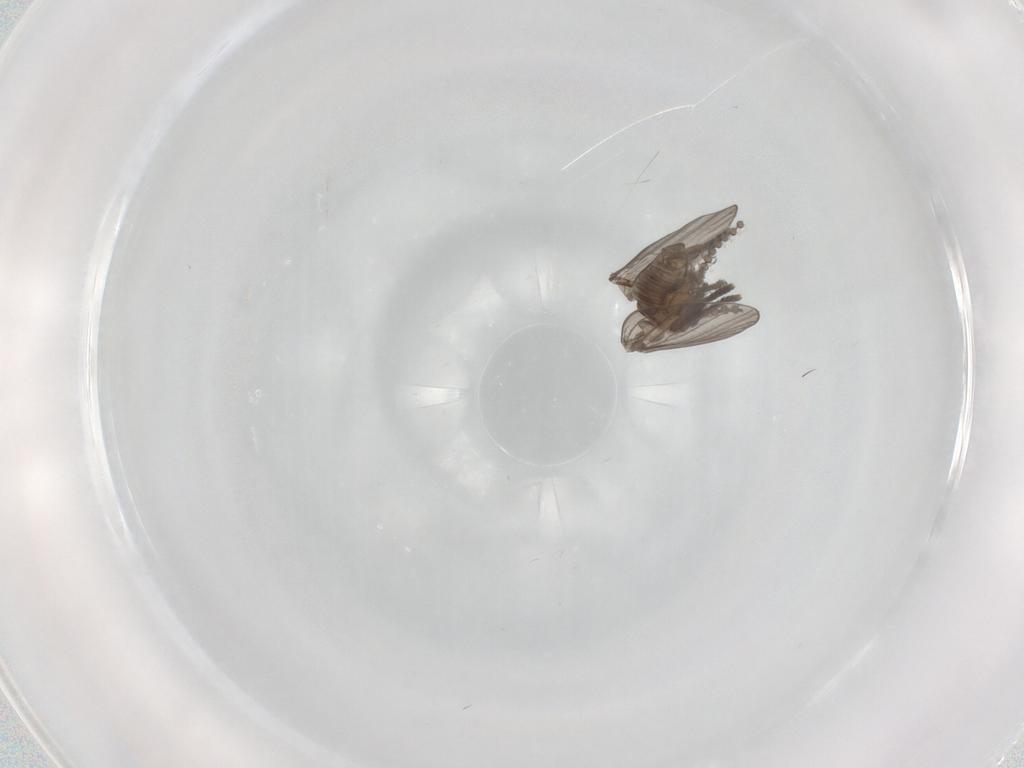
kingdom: Animalia
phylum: Arthropoda
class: Insecta
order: Diptera
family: Psychodidae
